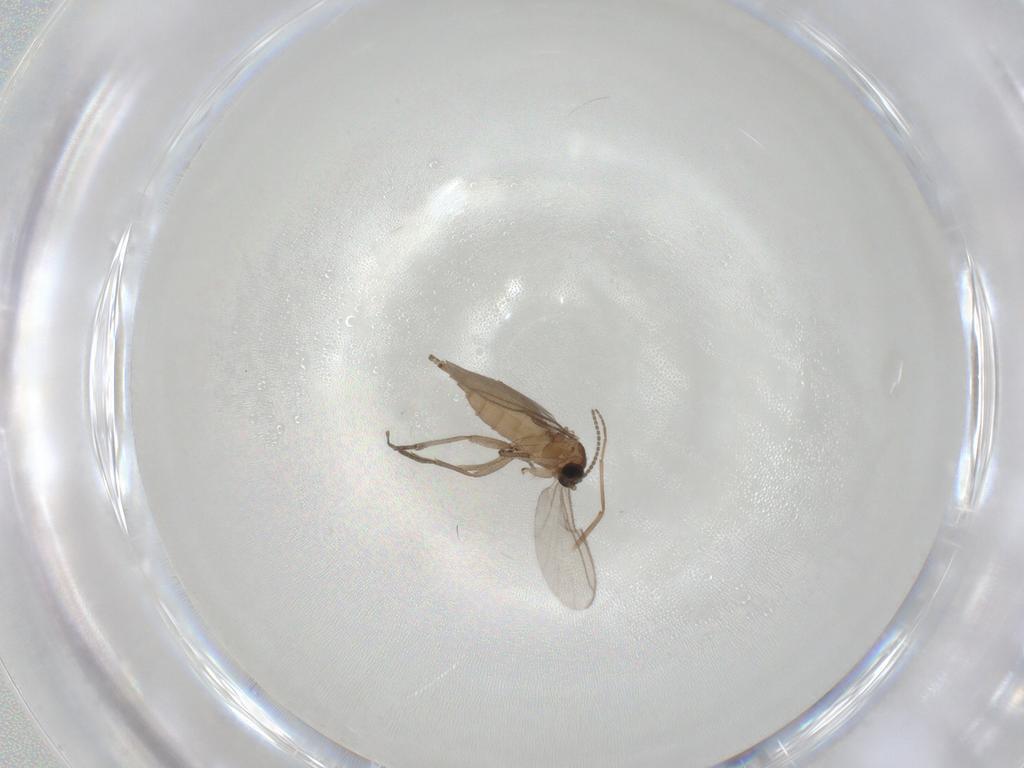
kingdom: Animalia
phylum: Arthropoda
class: Insecta
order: Diptera
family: Sciaridae
